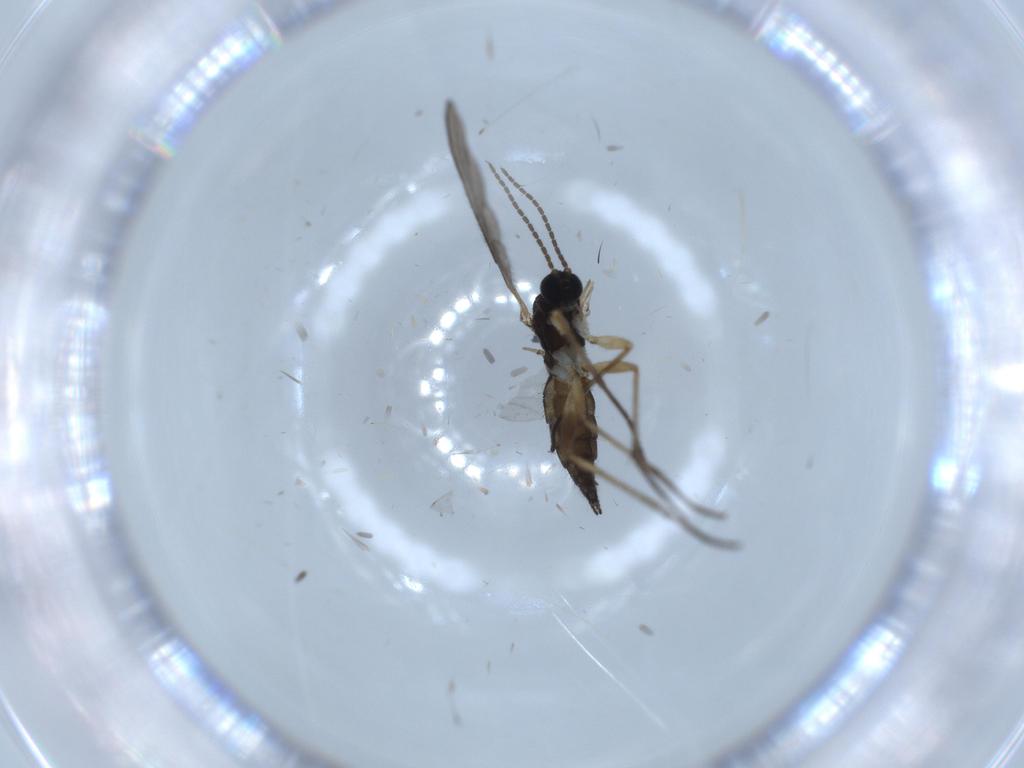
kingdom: Animalia
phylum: Arthropoda
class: Insecta
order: Diptera
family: Sciaridae
